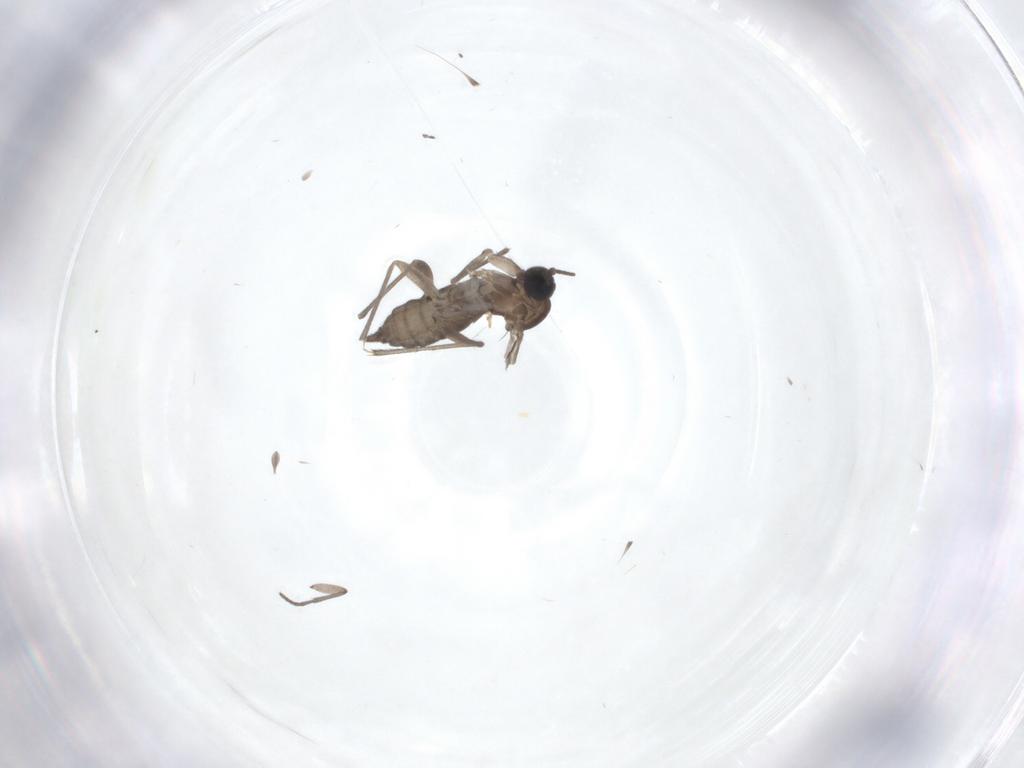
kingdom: Animalia
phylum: Arthropoda
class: Insecta
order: Diptera
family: Sciaridae
